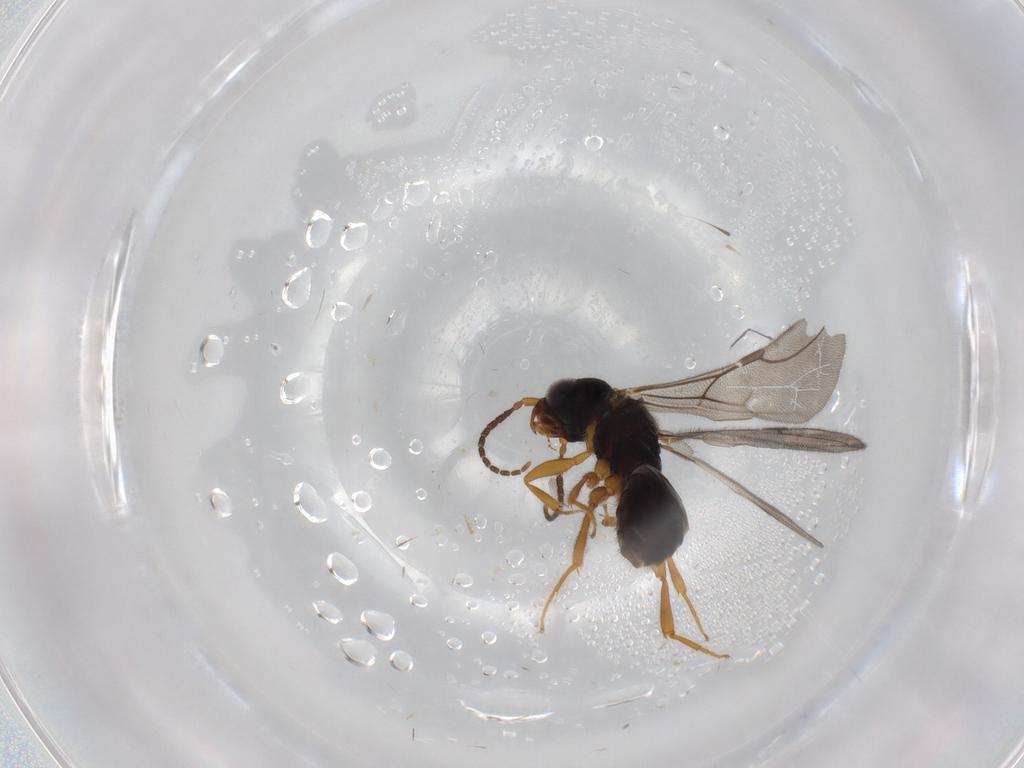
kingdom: Animalia
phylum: Arthropoda
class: Insecta
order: Hymenoptera
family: Bethylidae
